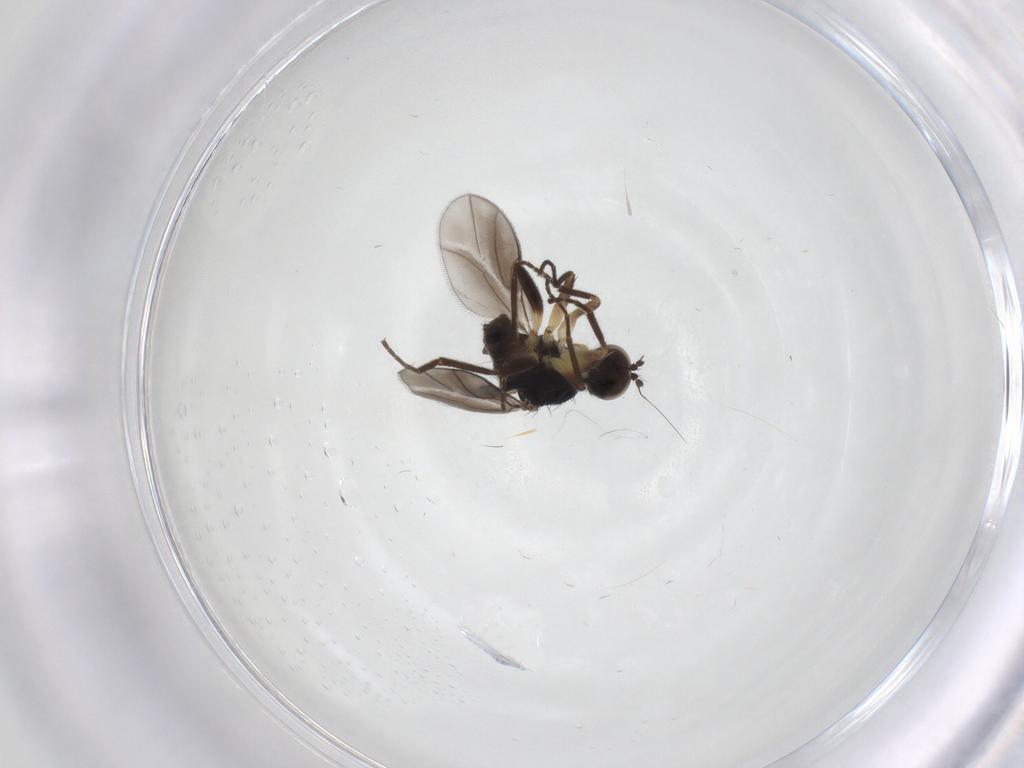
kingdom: Animalia
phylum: Arthropoda
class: Insecta
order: Diptera
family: Hybotidae
